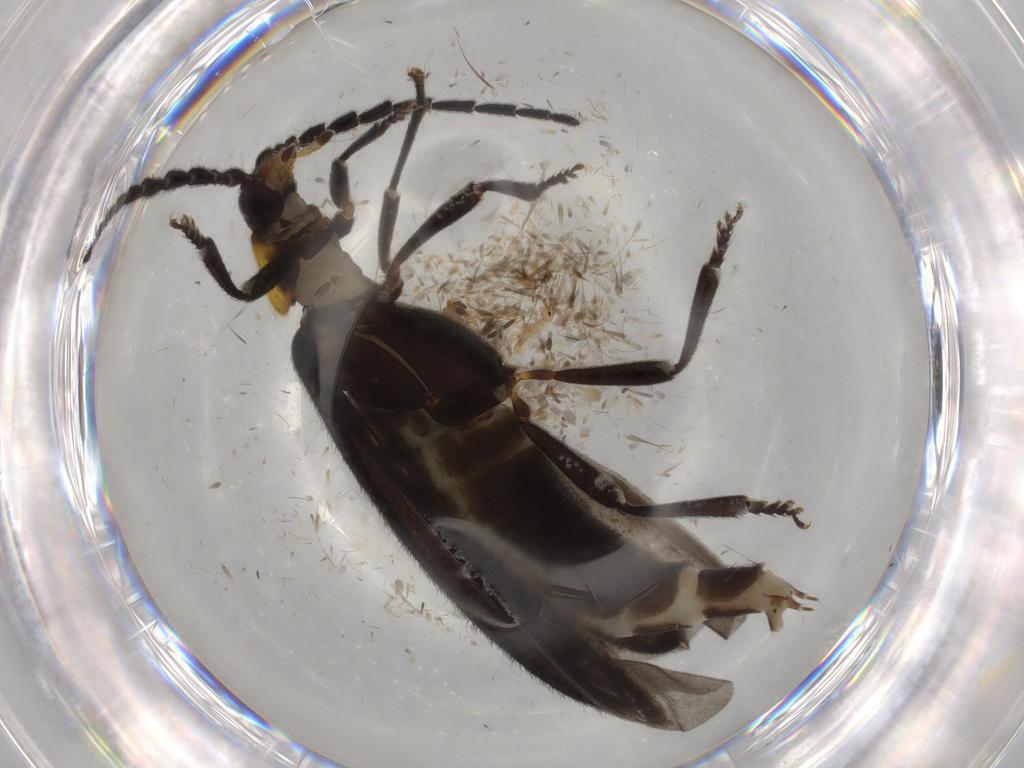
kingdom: Animalia
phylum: Arthropoda
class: Insecta
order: Coleoptera
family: Lycidae
